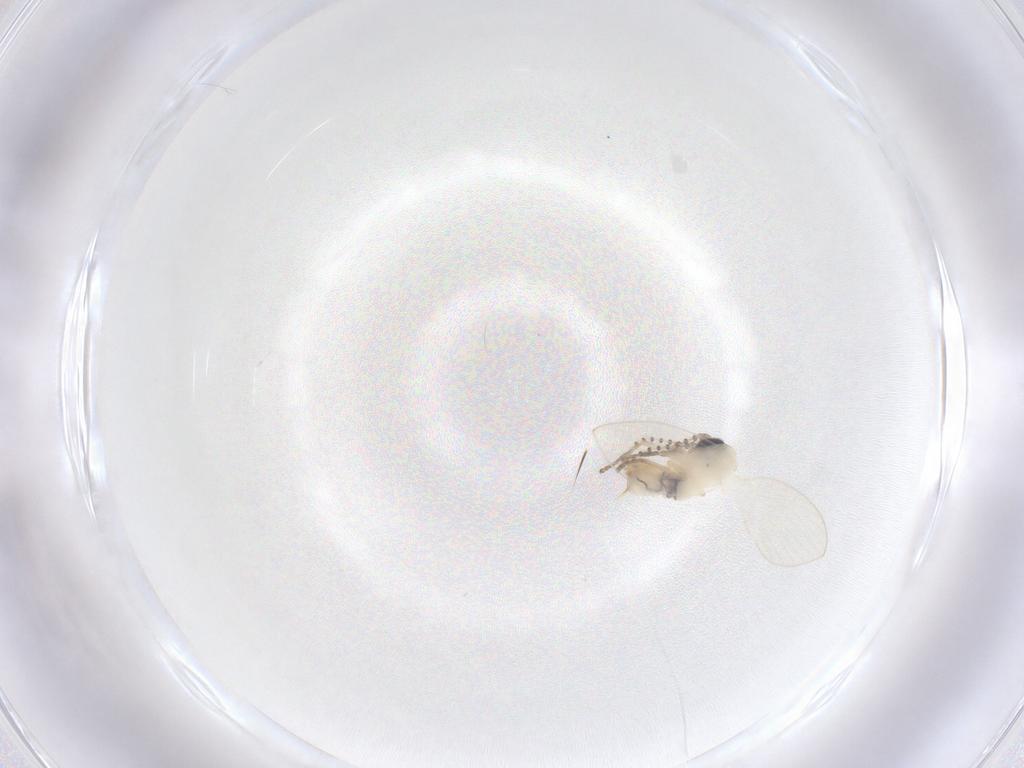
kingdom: Animalia
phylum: Arthropoda
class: Insecta
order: Diptera
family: Psychodidae
